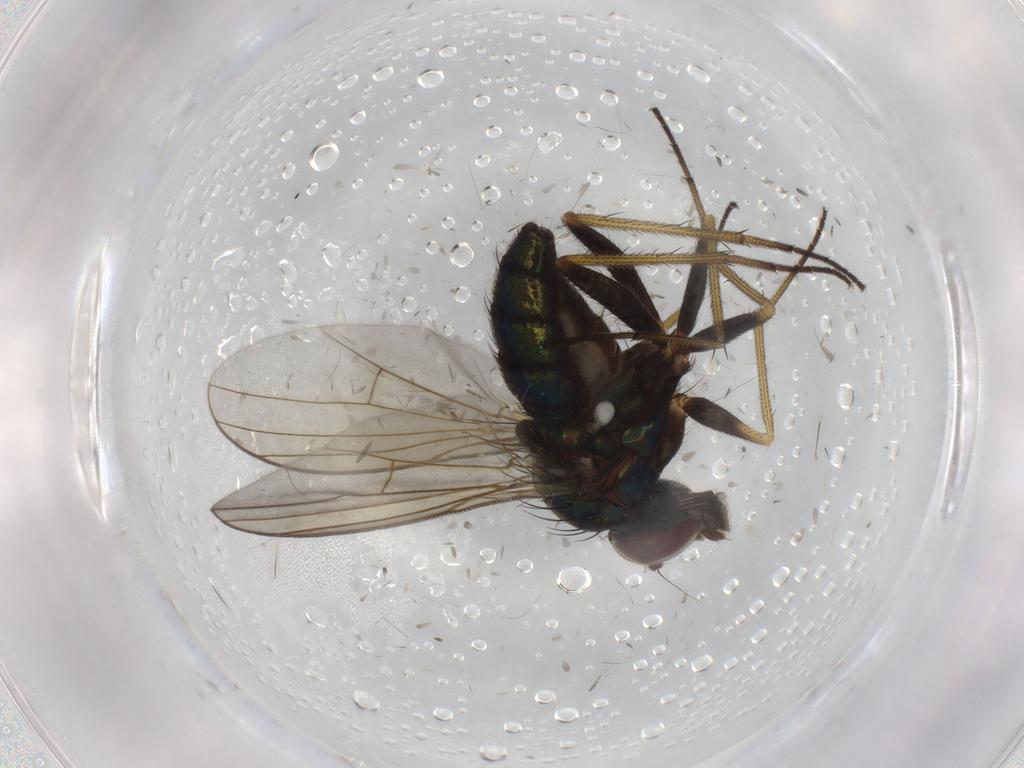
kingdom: Animalia
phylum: Arthropoda
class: Insecta
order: Diptera
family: Dolichopodidae
